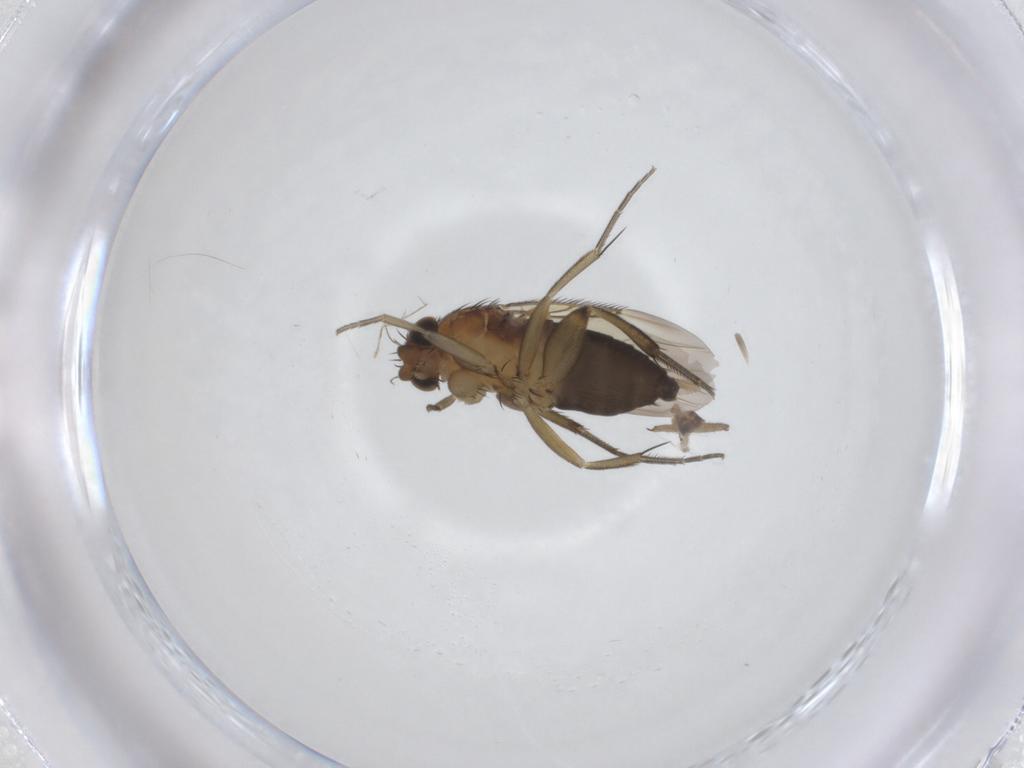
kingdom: Animalia
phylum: Arthropoda
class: Insecta
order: Diptera
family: Chironomidae
